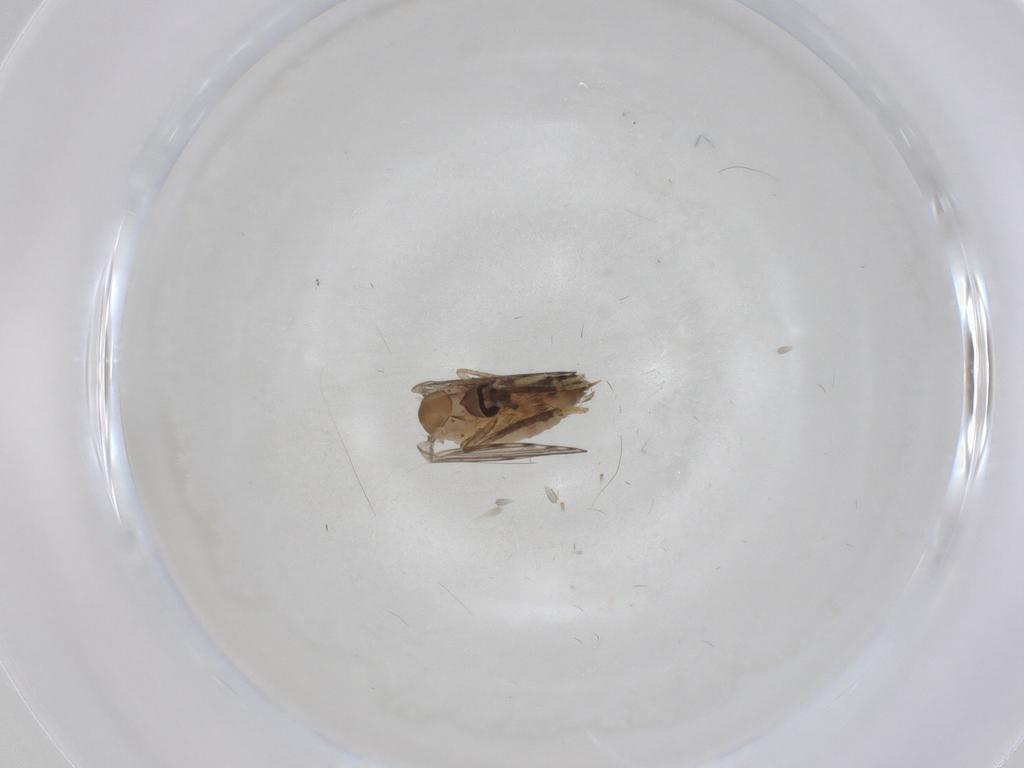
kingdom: Animalia
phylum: Arthropoda
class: Insecta
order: Diptera
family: Psychodidae
